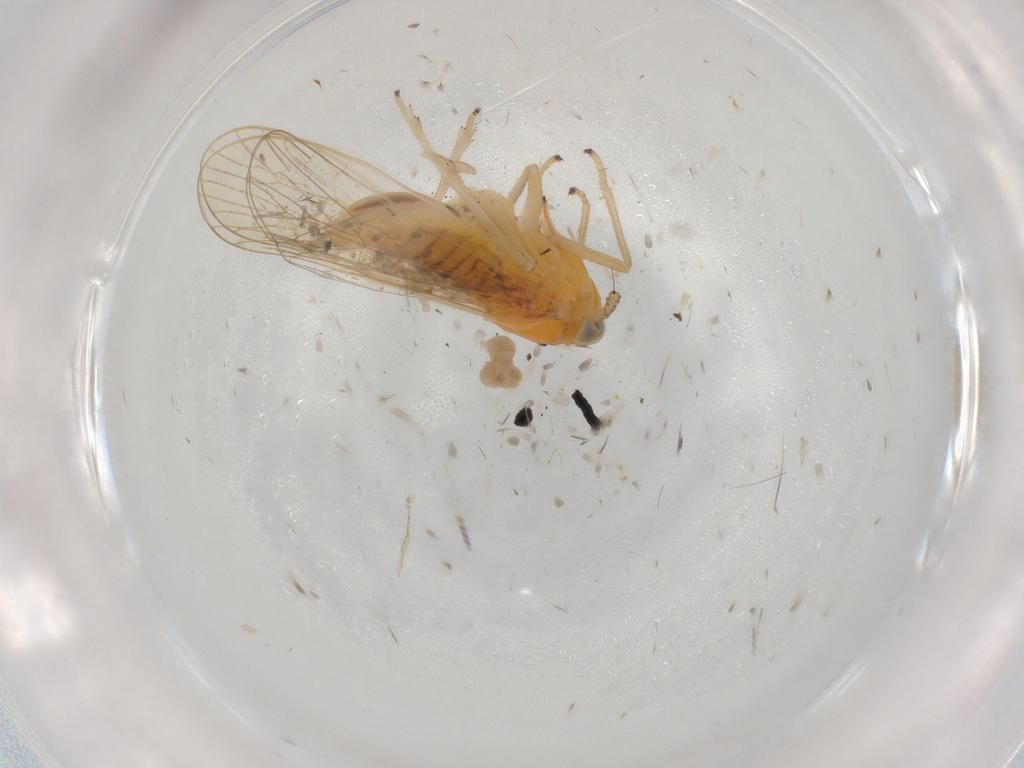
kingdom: Animalia
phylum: Arthropoda
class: Insecta
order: Hemiptera
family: Delphacidae
